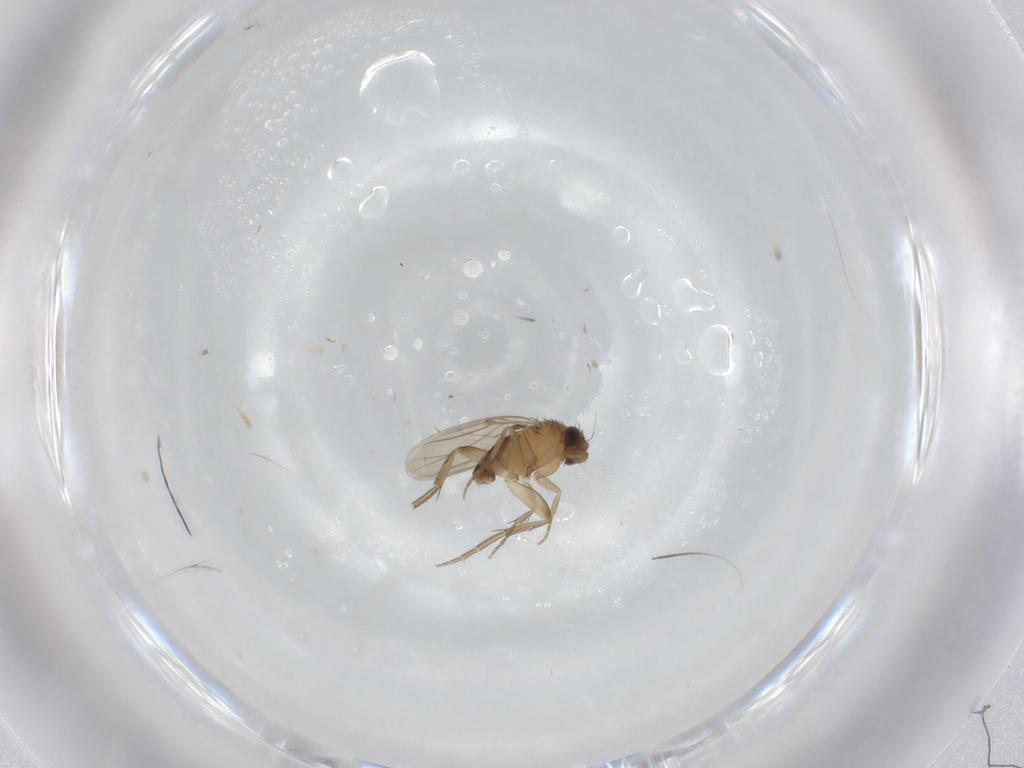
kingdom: Animalia
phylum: Arthropoda
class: Insecta
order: Diptera
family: Phoridae
